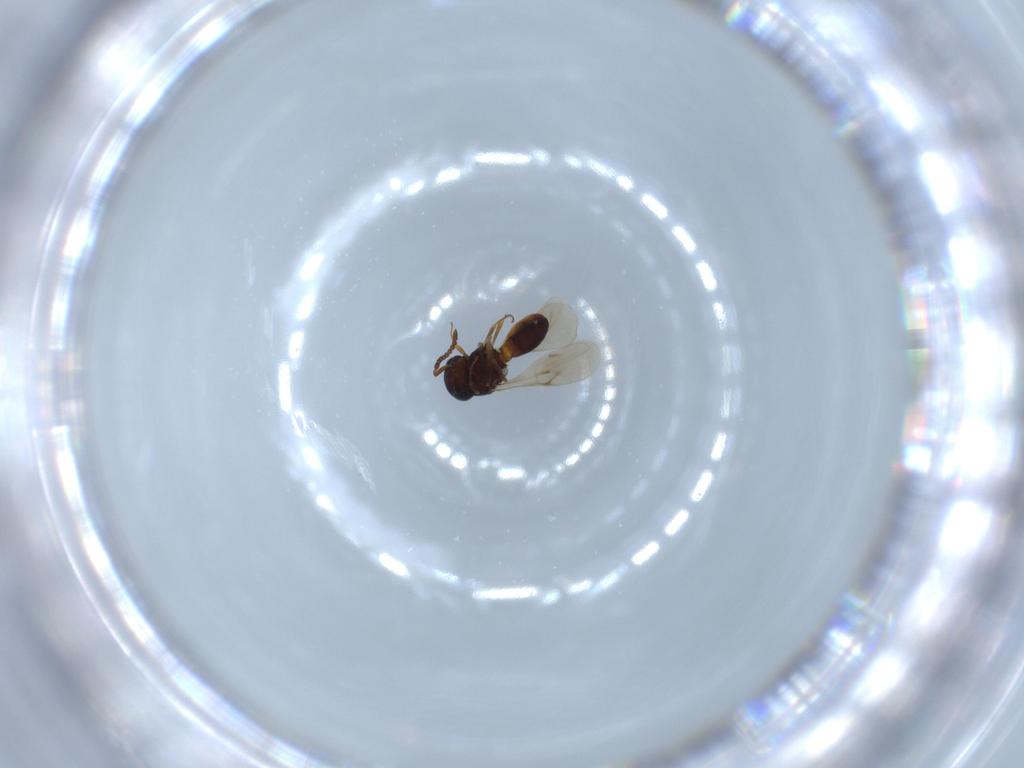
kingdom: Animalia
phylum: Arthropoda
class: Insecta
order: Hymenoptera
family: Scelionidae
